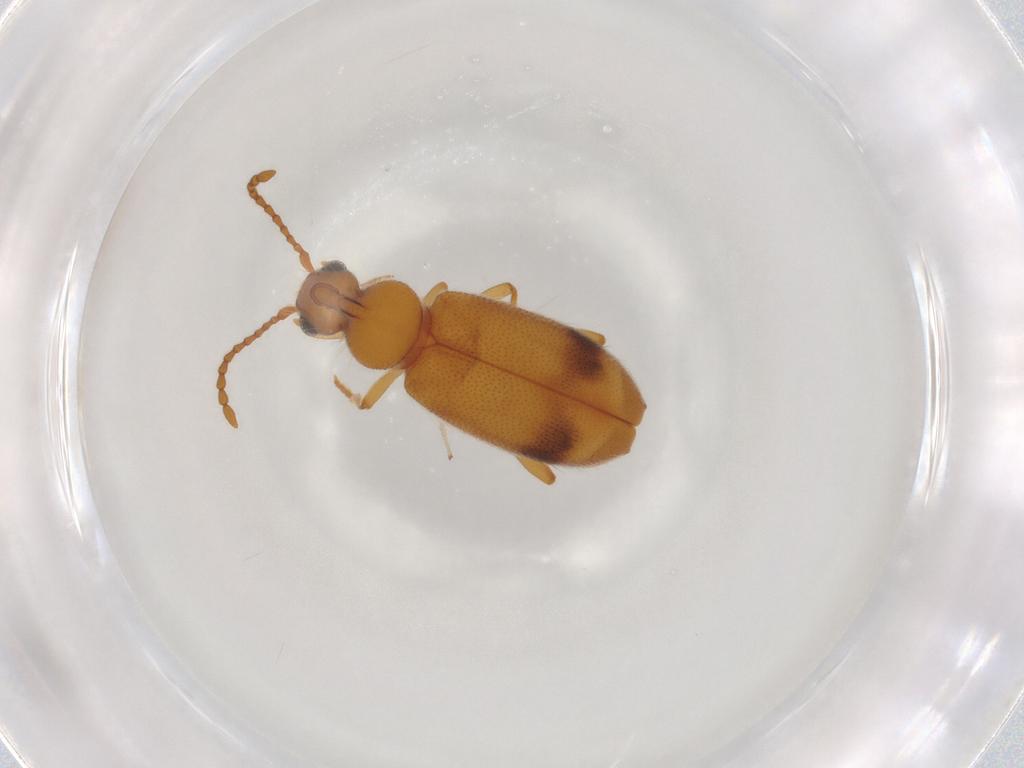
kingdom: Animalia
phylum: Arthropoda
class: Insecta
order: Coleoptera
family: Anthicidae
